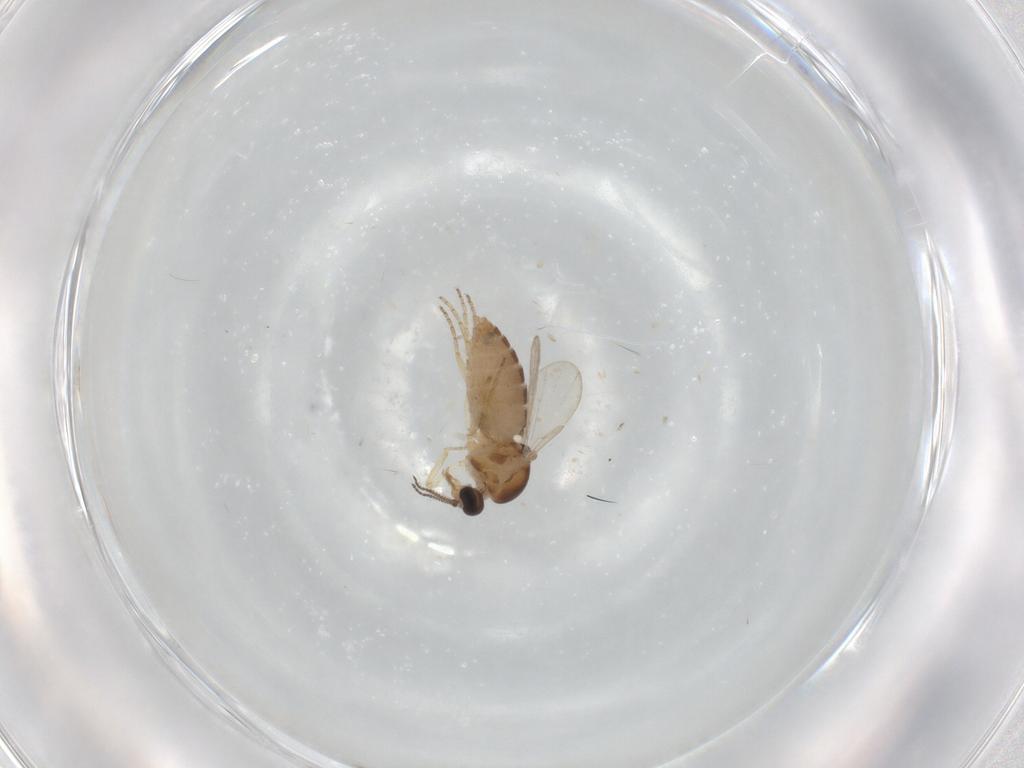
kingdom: Animalia
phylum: Arthropoda
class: Insecta
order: Diptera
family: Ceratopogonidae
